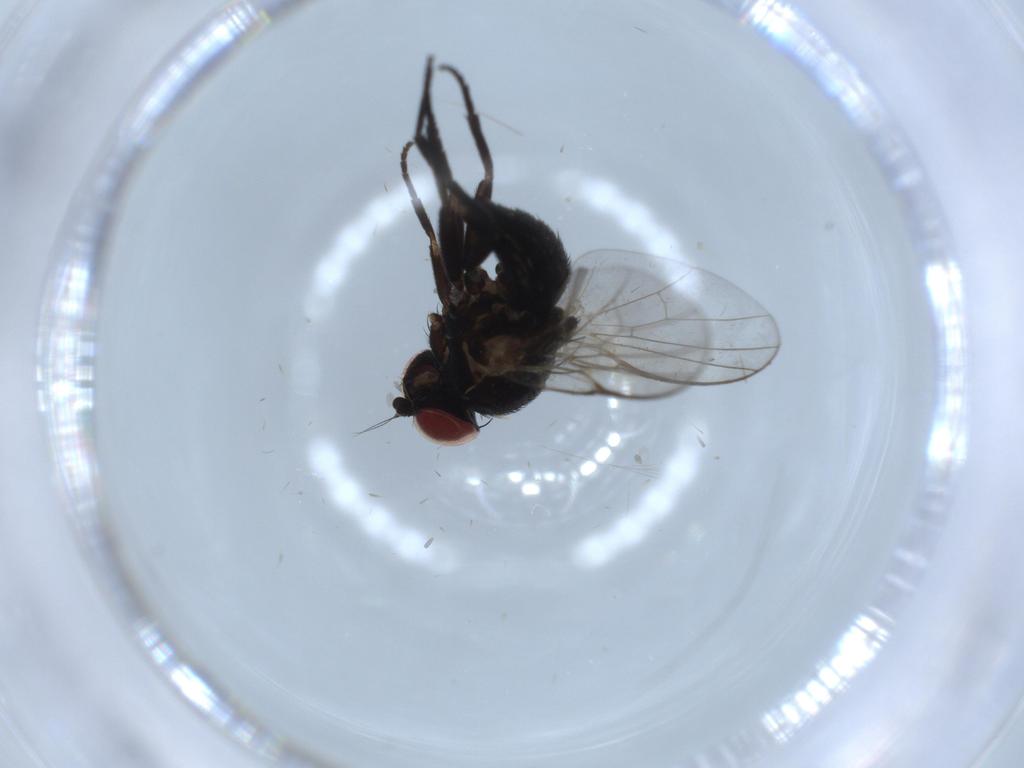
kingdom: Animalia
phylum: Arthropoda
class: Insecta
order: Diptera
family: Agromyzidae
